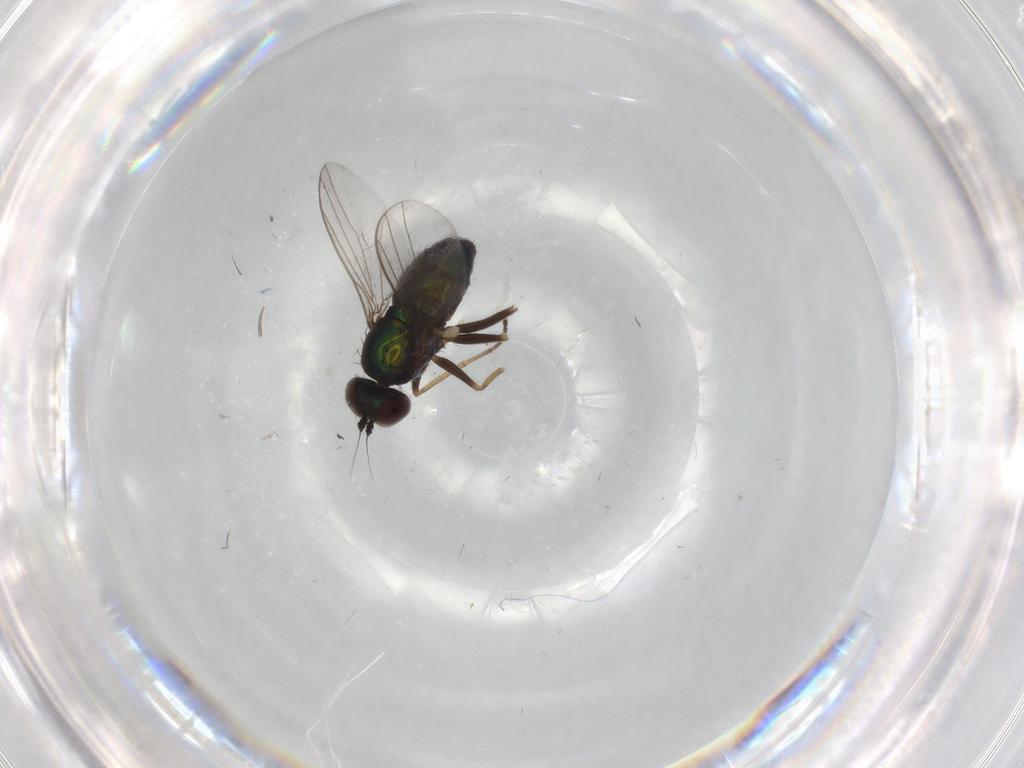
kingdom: Animalia
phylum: Arthropoda
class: Insecta
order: Diptera
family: Dolichopodidae
